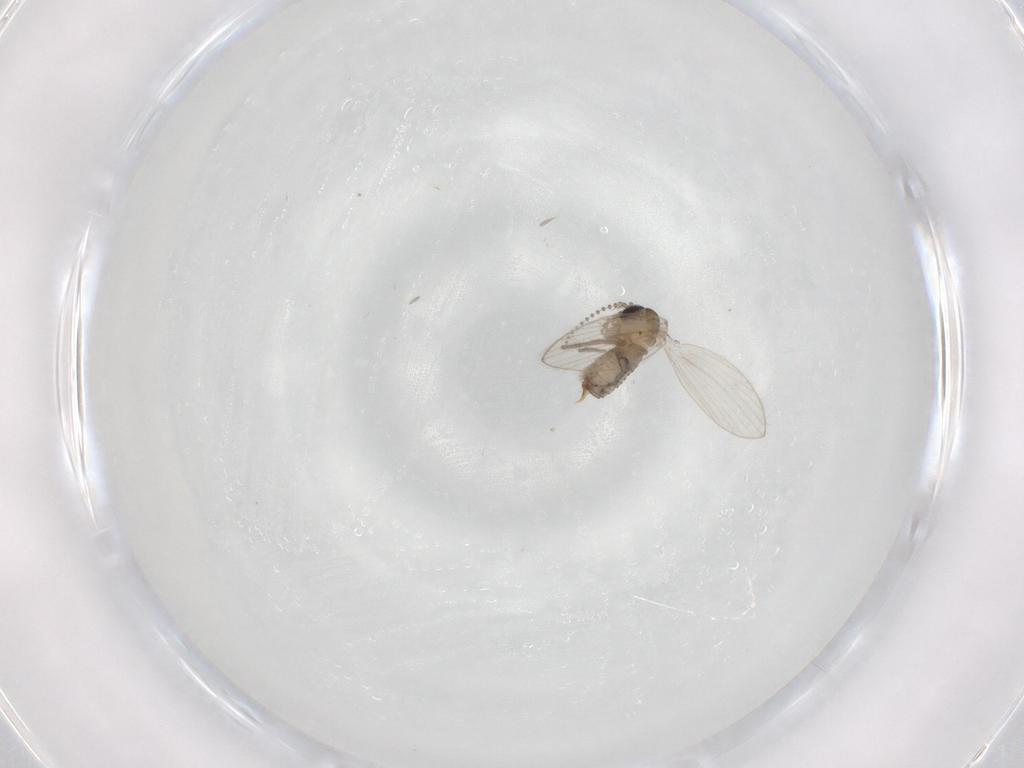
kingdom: Animalia
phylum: Arthropoda
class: Insecta
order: Diptera
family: Psychodidae
